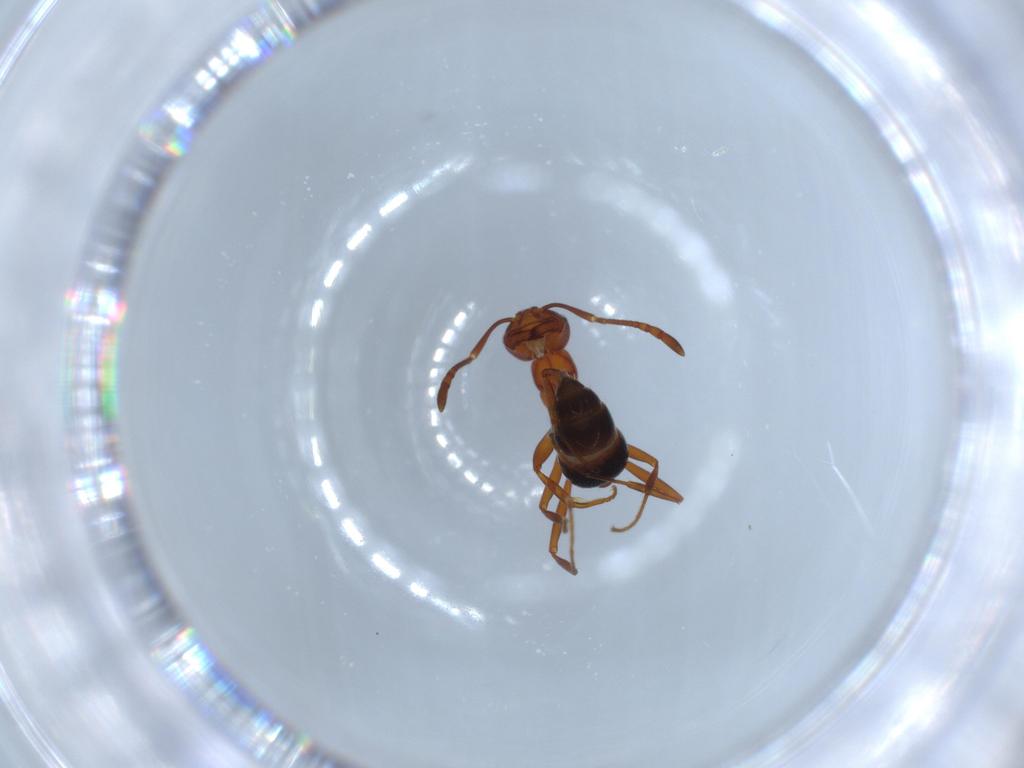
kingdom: Animalia
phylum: Arthropoda
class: Insecta
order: Hymenoptera
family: Formicidae
